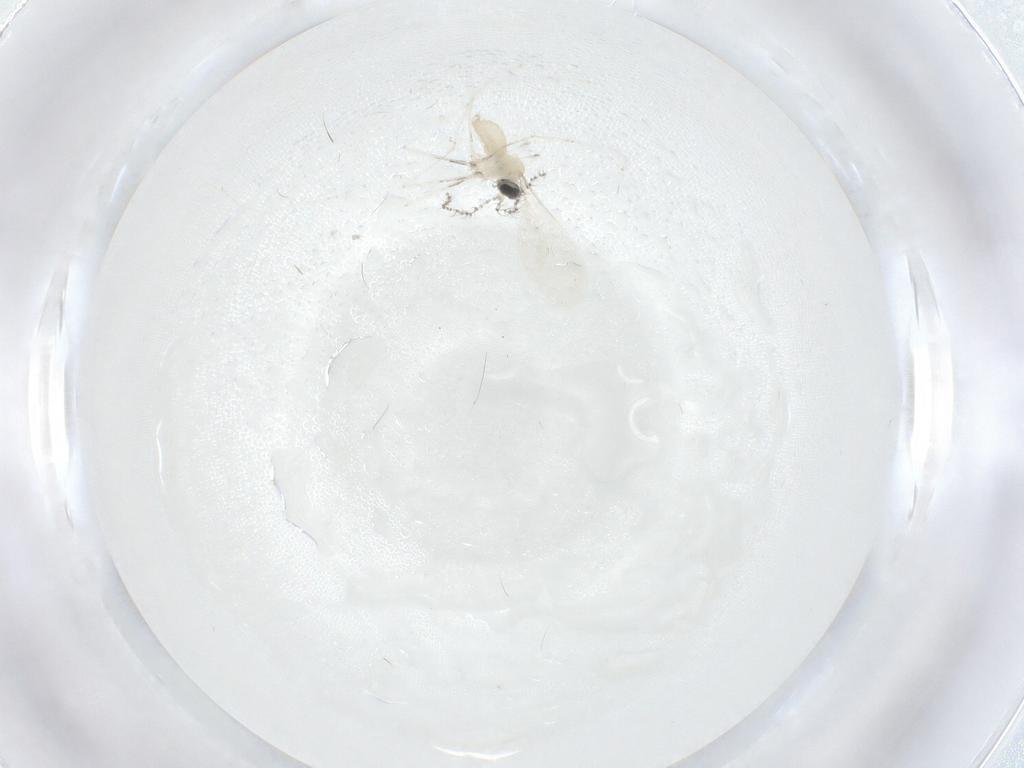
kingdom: Animalia
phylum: Arthropoda
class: Insecta
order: Diptera
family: Cecidomyiidae
